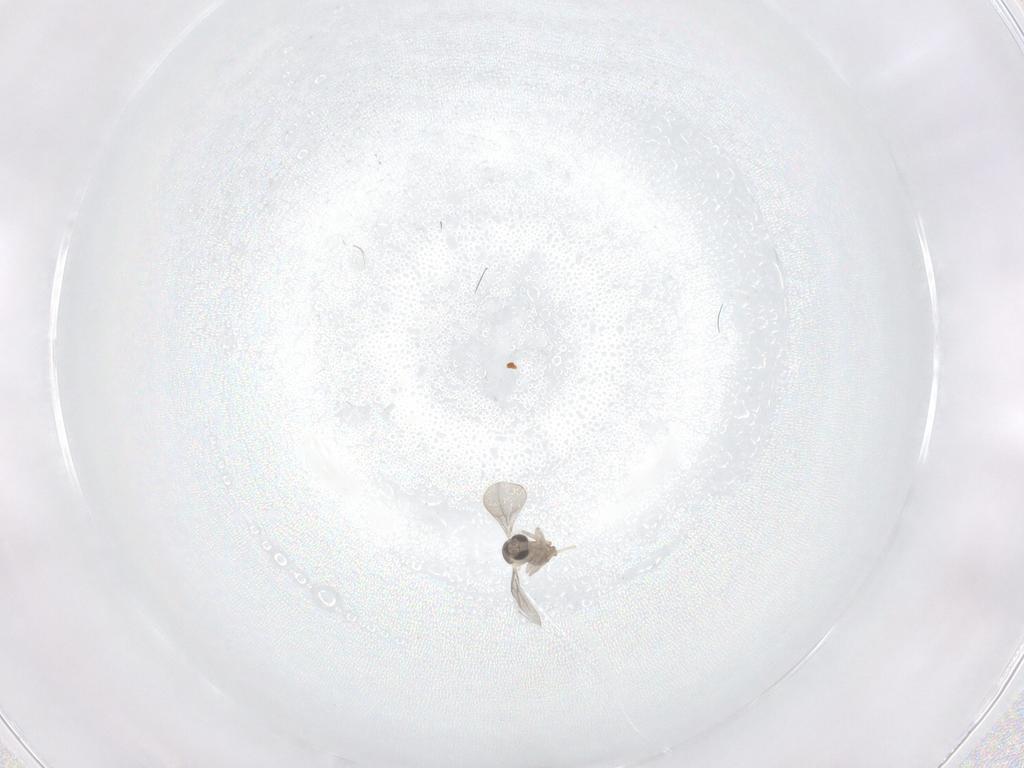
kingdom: Animalia
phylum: Arthropoda
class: Insecta
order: Diptera
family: Cecidomyiidae
